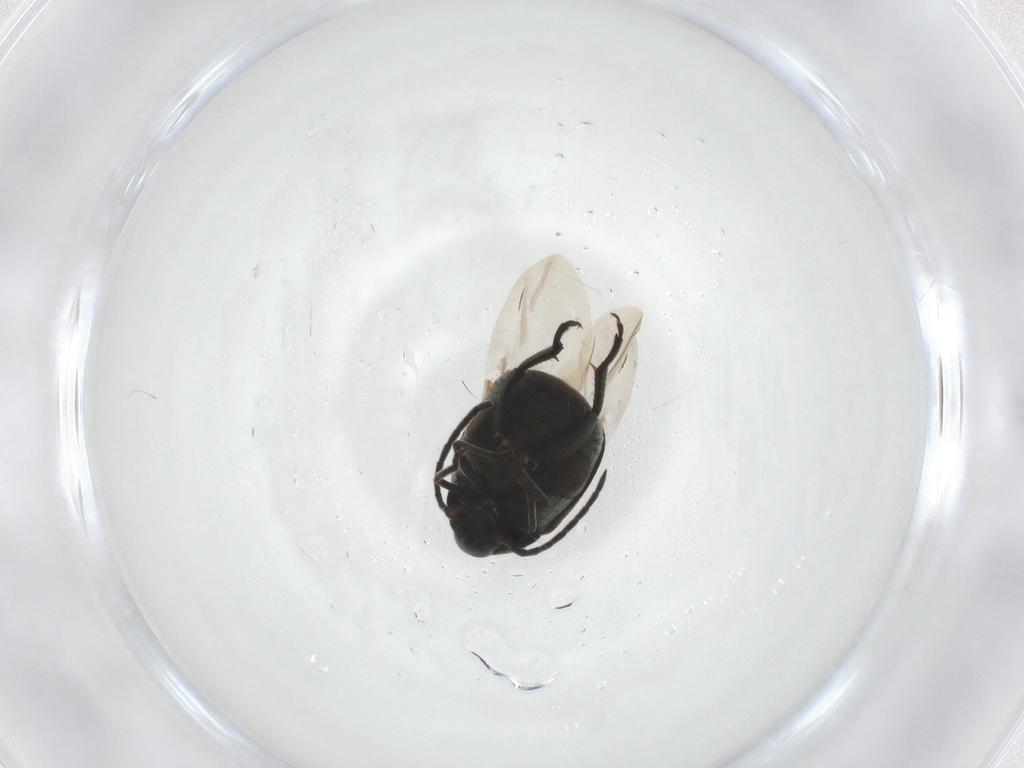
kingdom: Animalia
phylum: Arthropoda
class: Insecta
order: Coleoptera
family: Chrysomelidae
